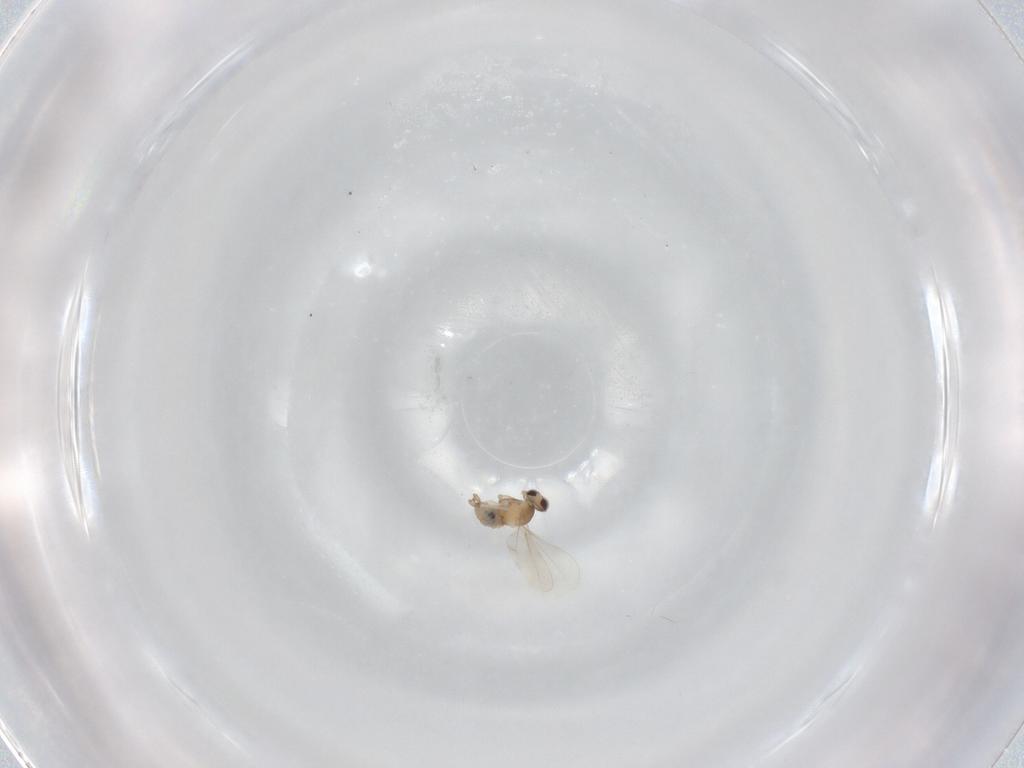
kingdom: Animalia
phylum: Arthropoda
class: Insecta
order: Diptera
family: Cecidomyiidae
